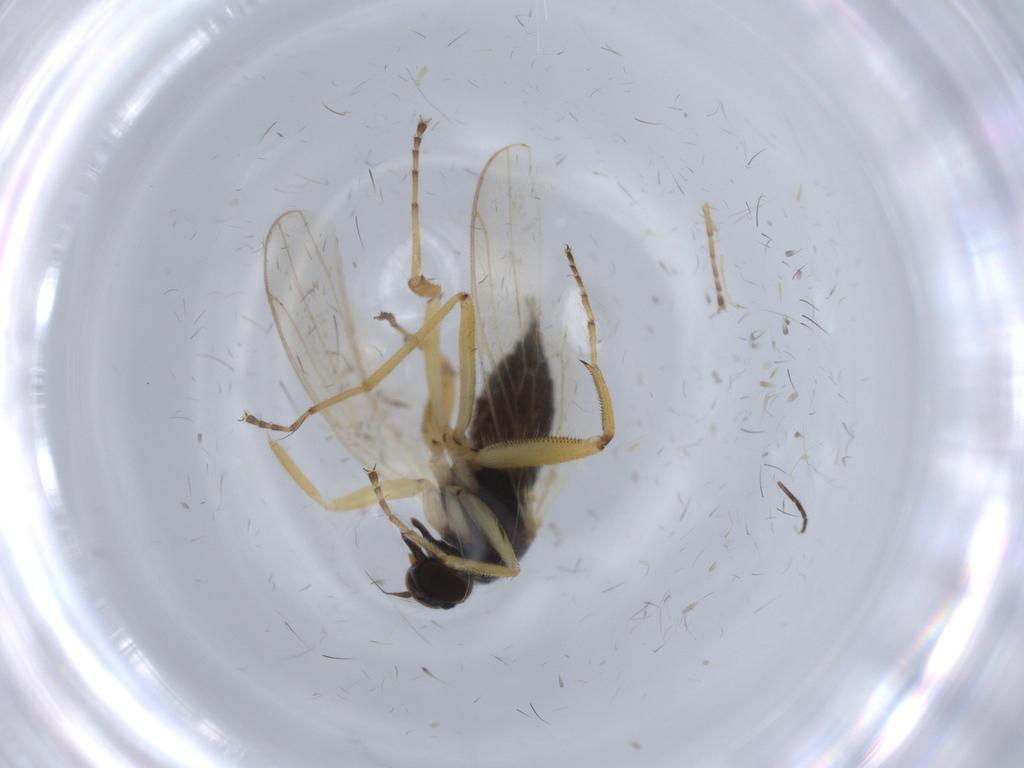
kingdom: Animalia
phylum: Arthropoda
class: Insecta
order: Diptera
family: Hybotidae
